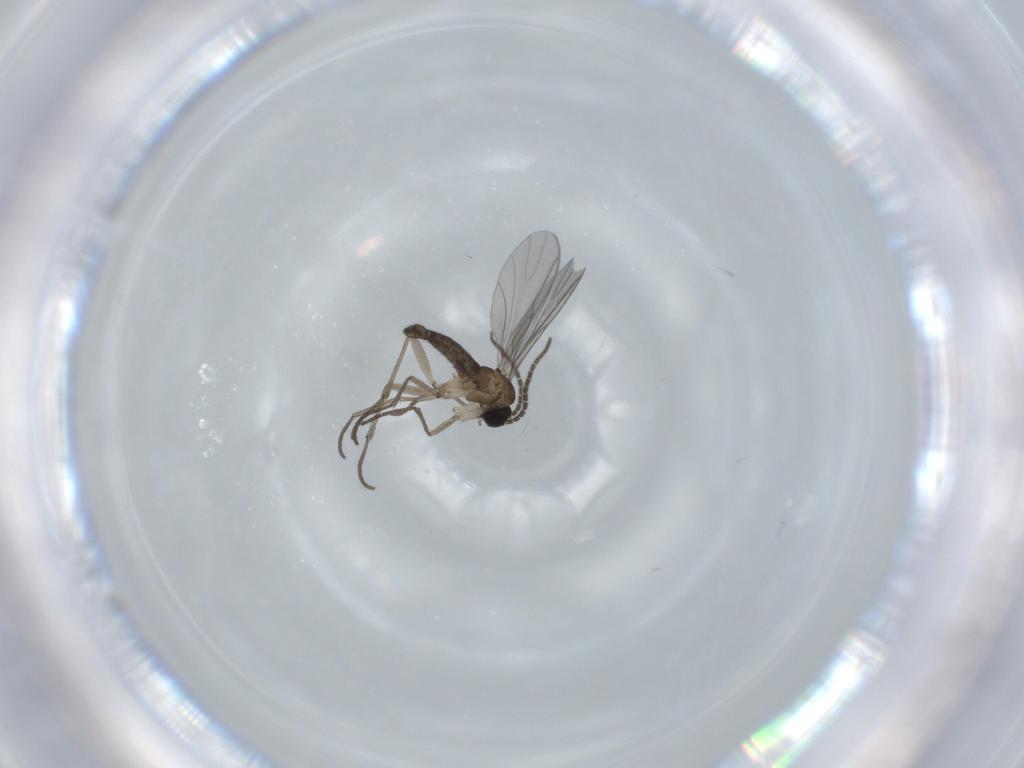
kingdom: Animalia
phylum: Arthropoda
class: Insecta
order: Diptera
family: Sciaridae
